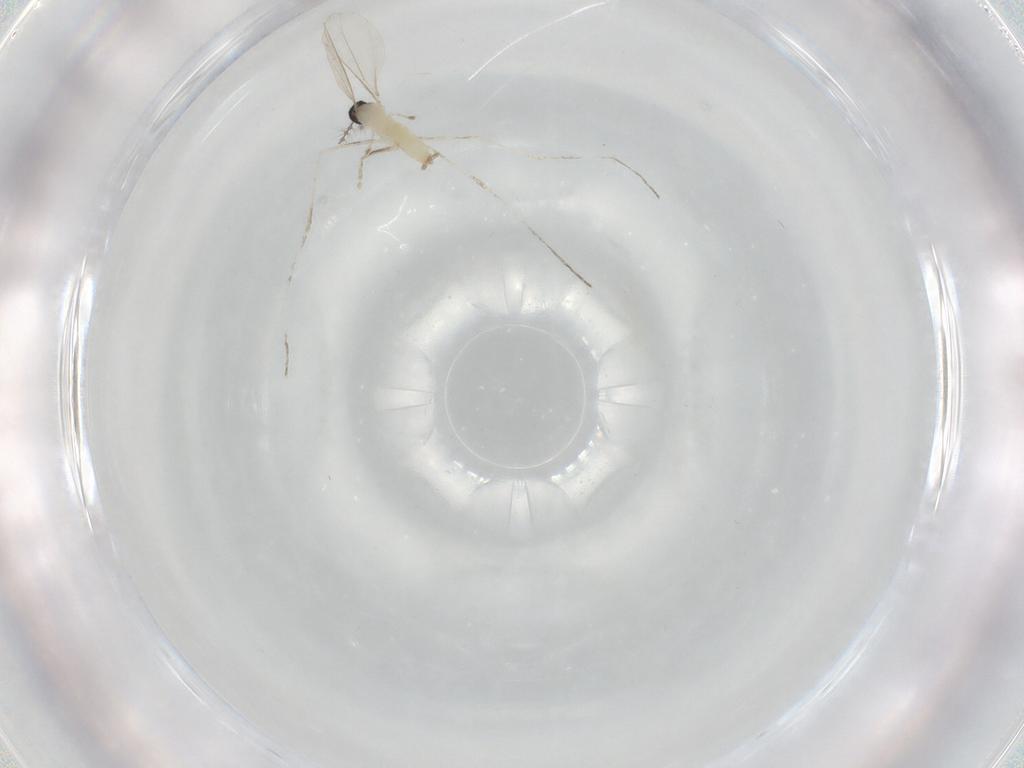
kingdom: Animalia
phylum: Arthropoda
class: Insecta
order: Diptera
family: Cecidomyiidae
